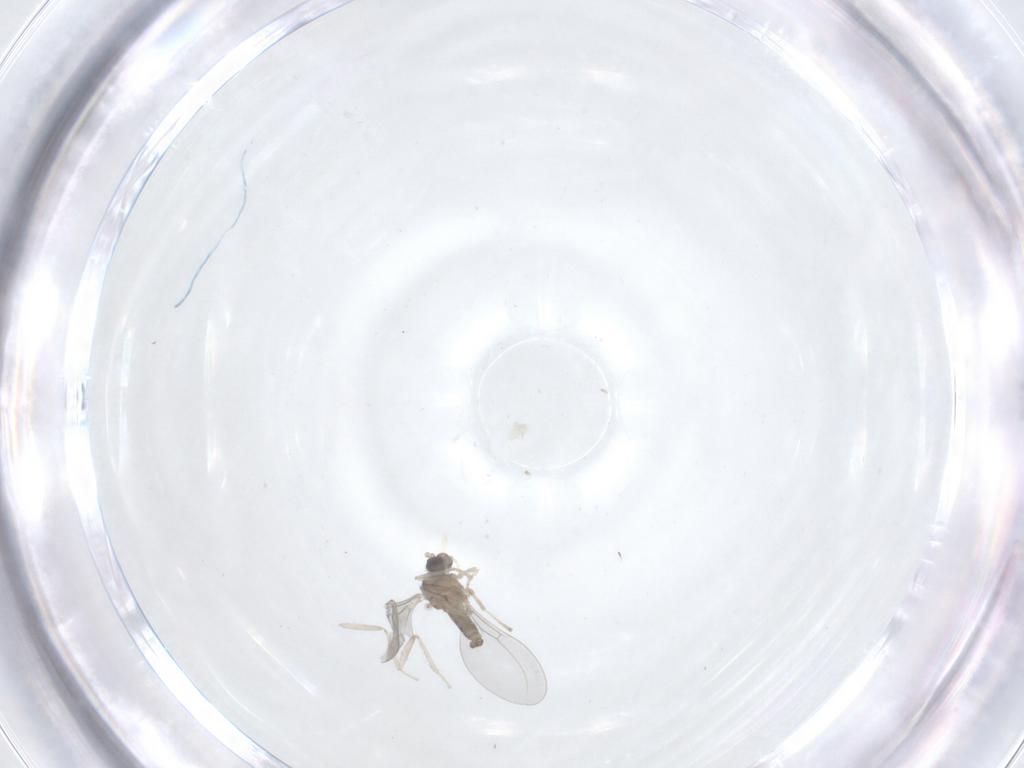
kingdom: Animalia
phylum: Arthropoda
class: Insecta
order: Diptera
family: Cecidomyiidae
